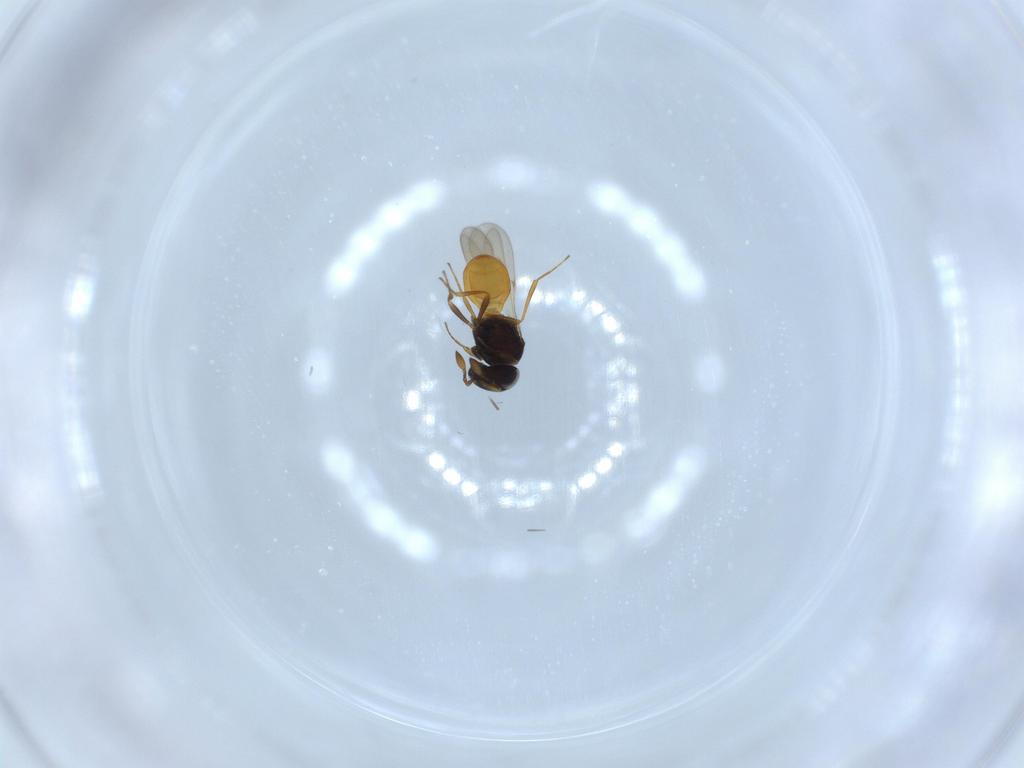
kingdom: Animalia
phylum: Arthropoda
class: Insecta
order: Hymenoptera
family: Scelionidae
